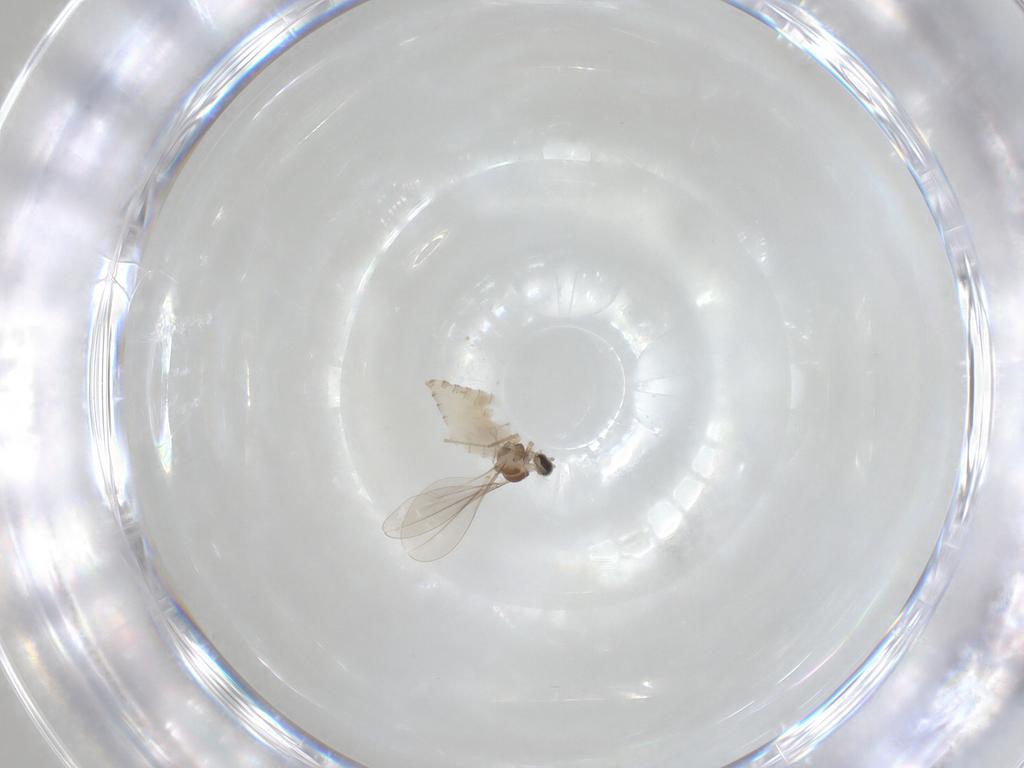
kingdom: Animalia
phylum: Arthropoda
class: Insecta
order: Diptera
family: Cecidomyiidae
